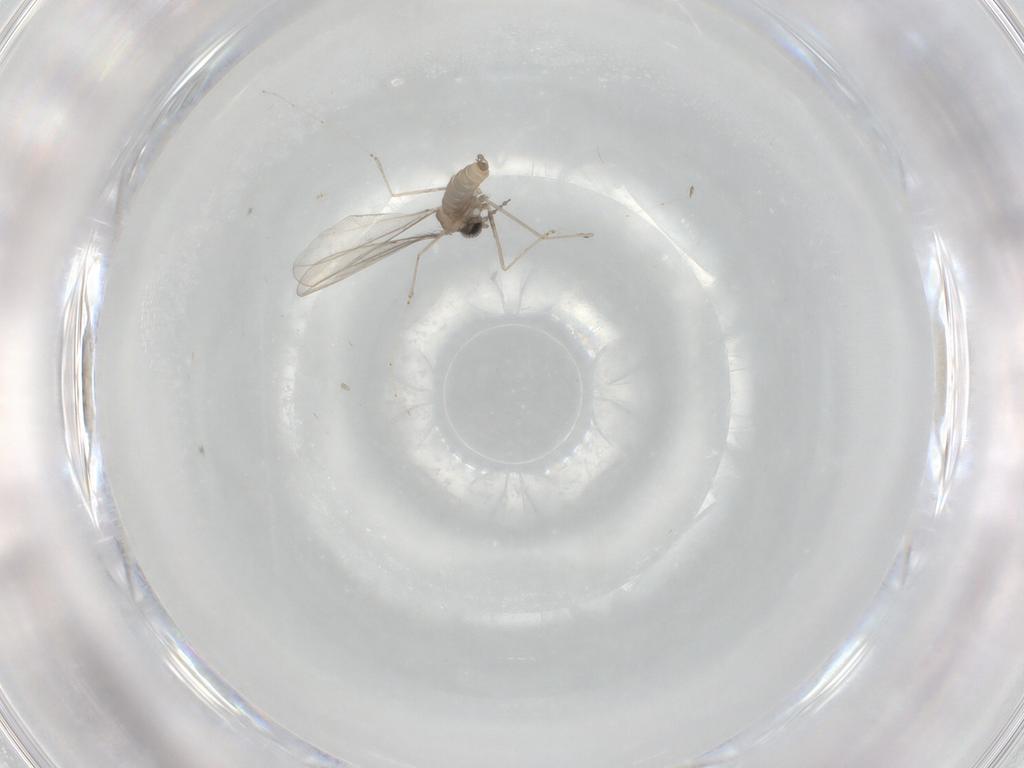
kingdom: Animalia
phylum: Arthropoda
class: Insecta
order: Diptera
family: Cecidomyiidae
